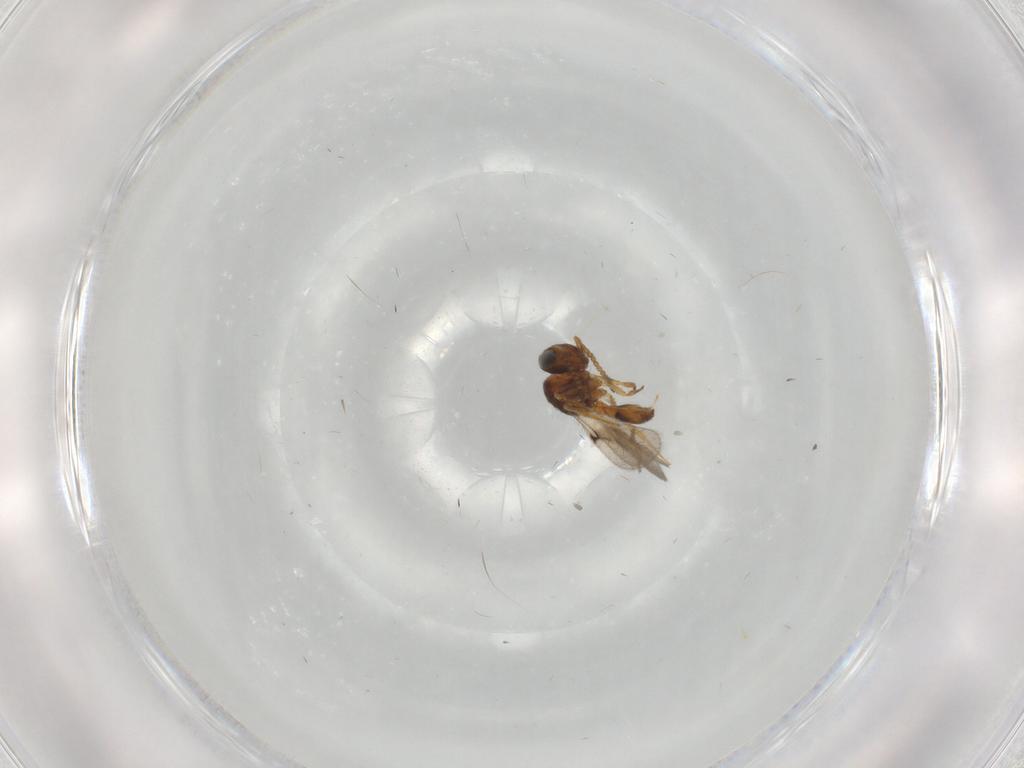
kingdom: Animalia
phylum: Arthropoda
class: Insecta
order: Hymenoptera
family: Scelionidae
